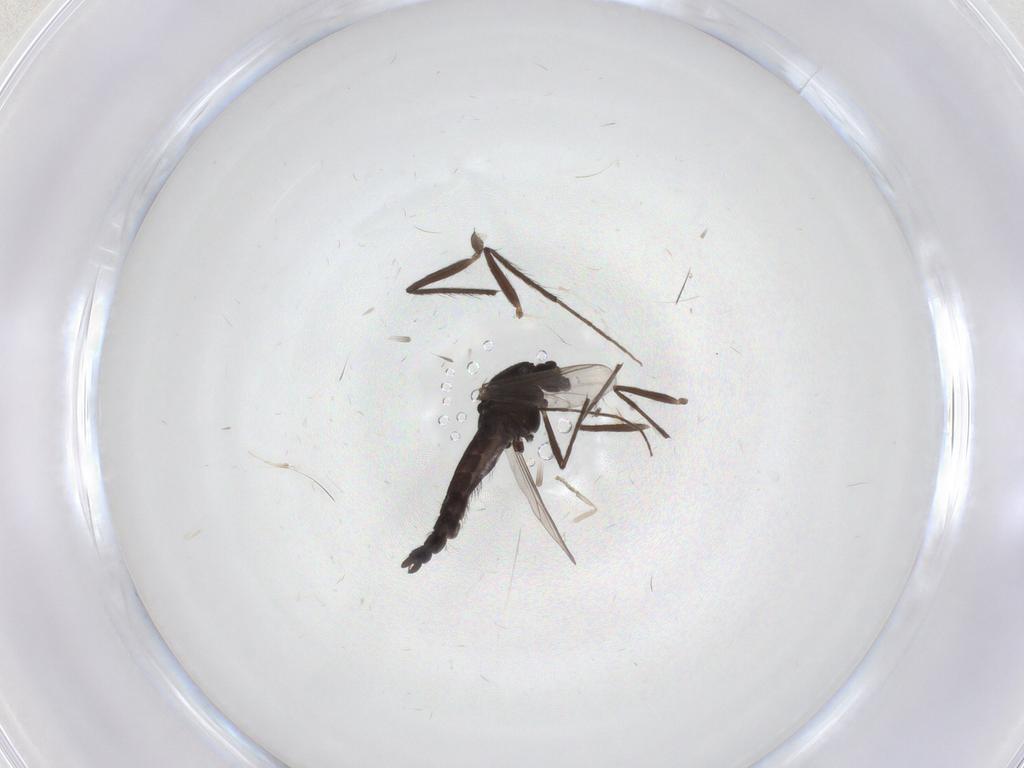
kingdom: Animalia
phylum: Arthropoda
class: Insecta
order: Diptera
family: Chironomidae
